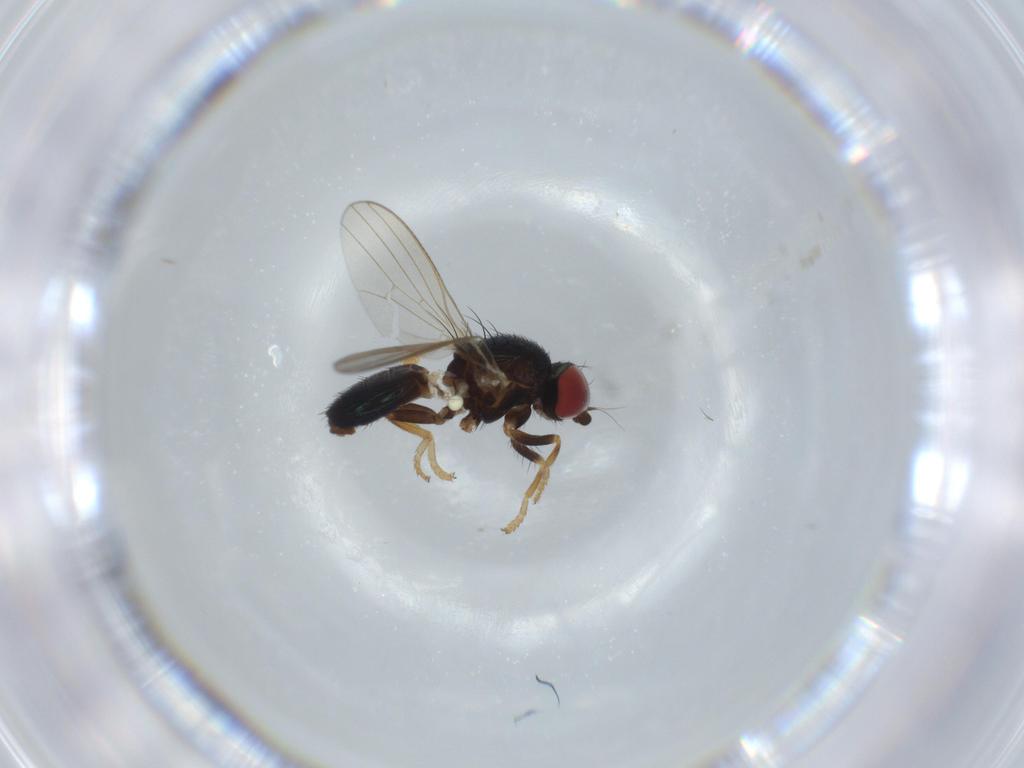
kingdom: Animalia
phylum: Arthropoda
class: Insecta
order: Diptera
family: Chamaemyiidae
